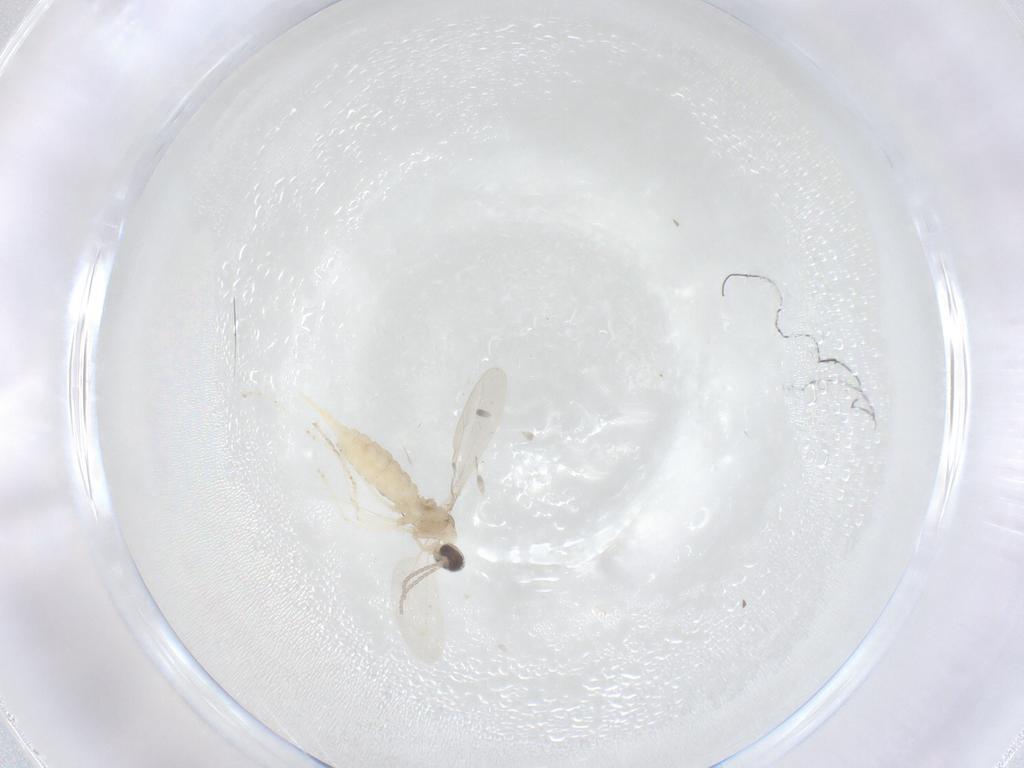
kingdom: Animalia
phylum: Arthropoda
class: Insecta
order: Diptera
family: Cecidomyiidae
